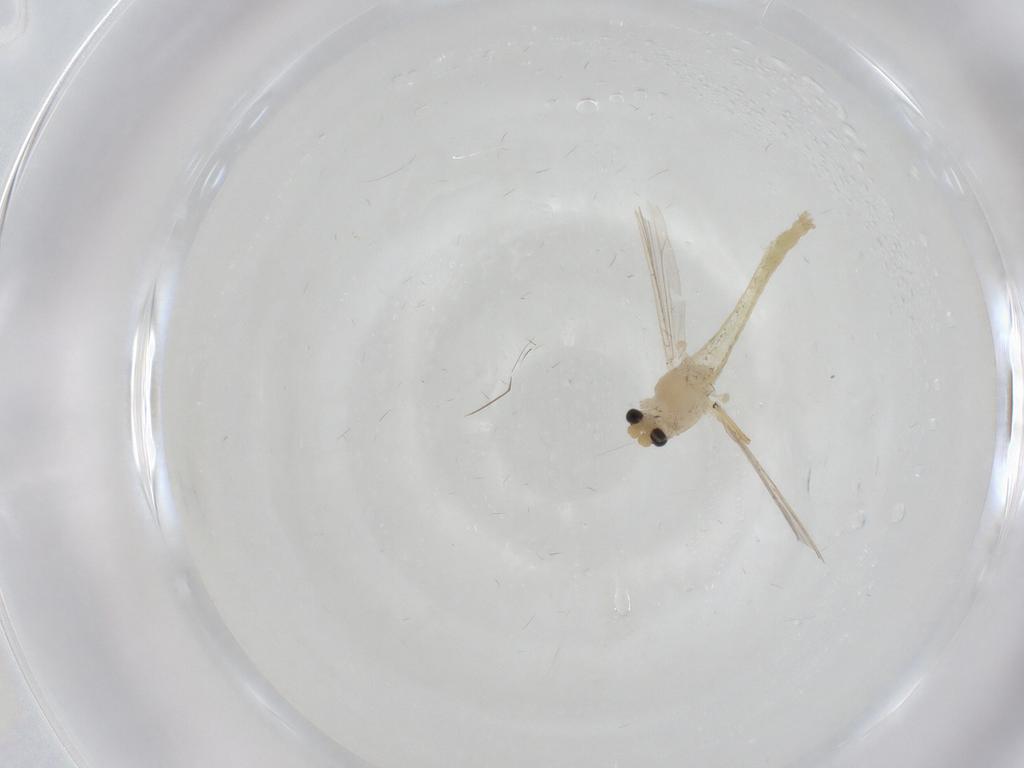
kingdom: Animalia
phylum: Arthropoda
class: Insecta
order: Diptera
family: Chironomidae
